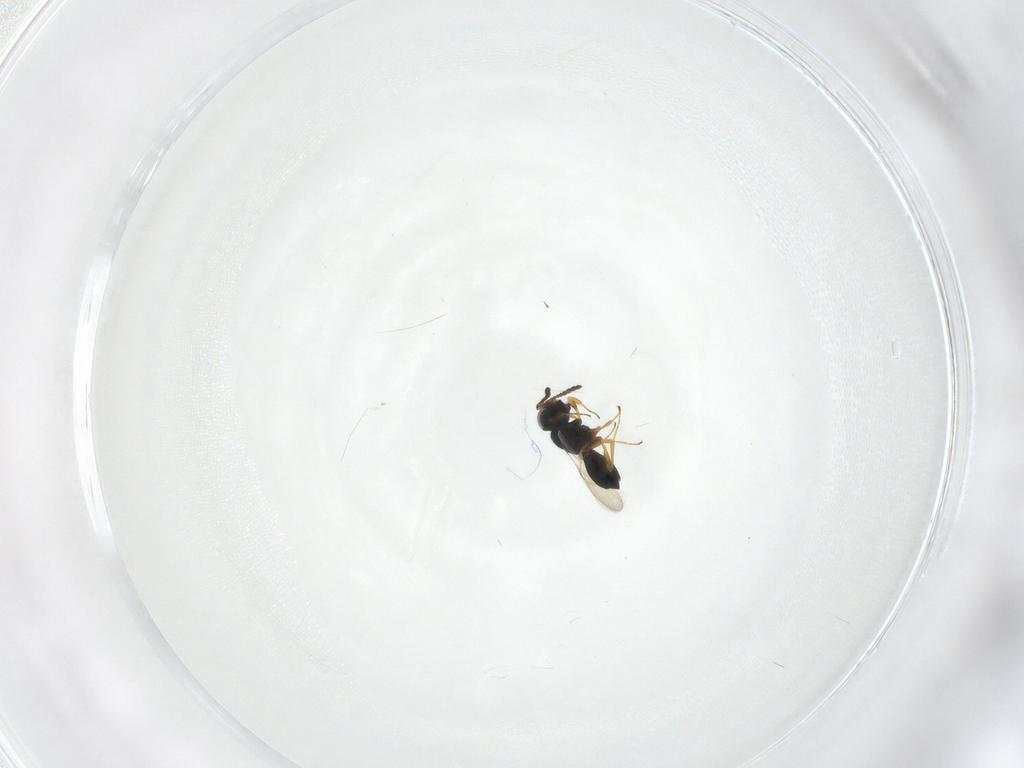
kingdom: Animalia
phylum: Arthropoda
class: Insecta
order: Hymenoptera
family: Scelionidae
